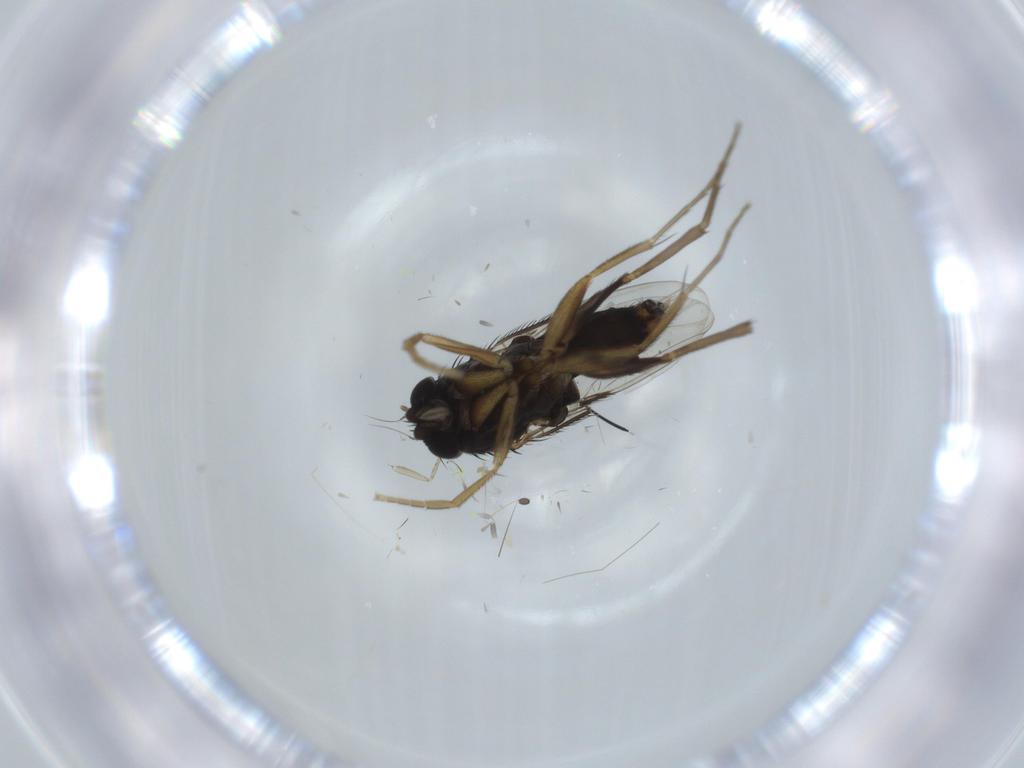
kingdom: Animalia
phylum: Arthropoda
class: Insecta
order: Diptera
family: Phoridae
